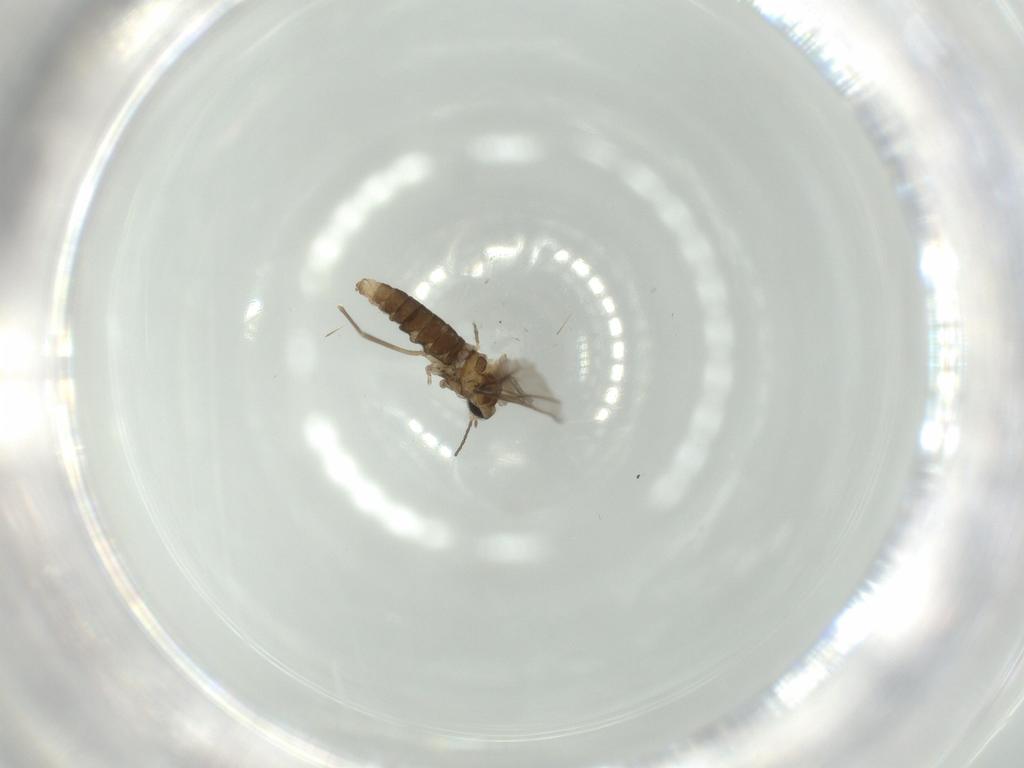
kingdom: Animalia
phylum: Arthropoda
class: Insecta
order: Diptera
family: Cecidomyiidae
